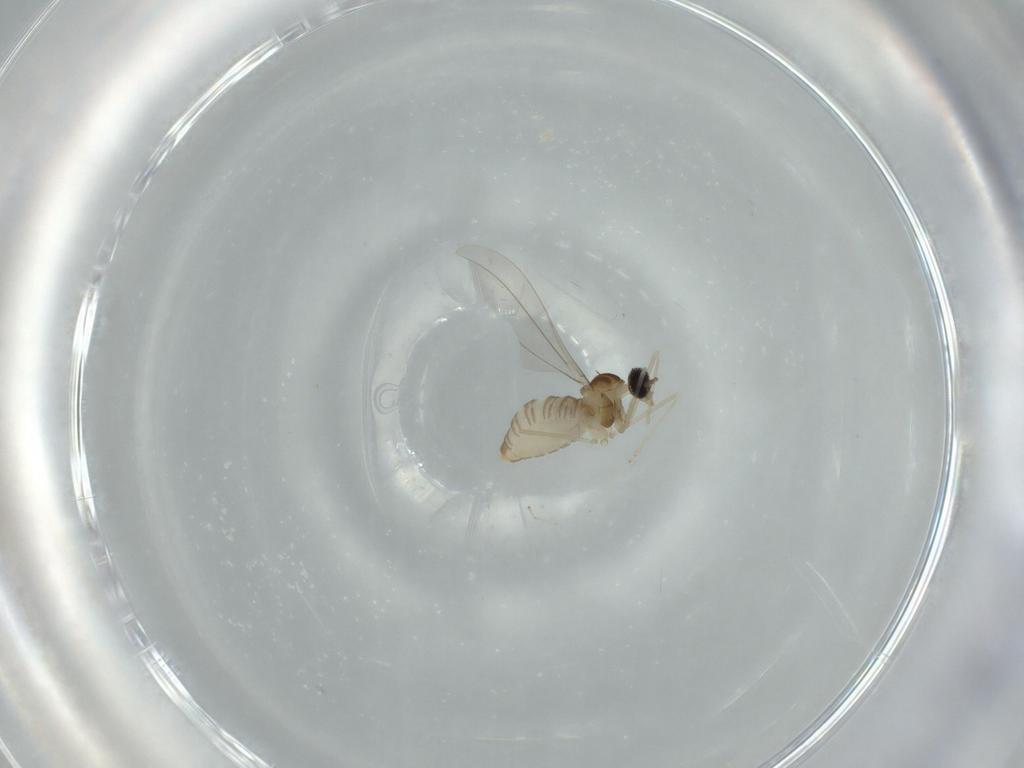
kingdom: Animalia
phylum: Arthropoda
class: Insecta
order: Diptera
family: Cecidomyiidae
